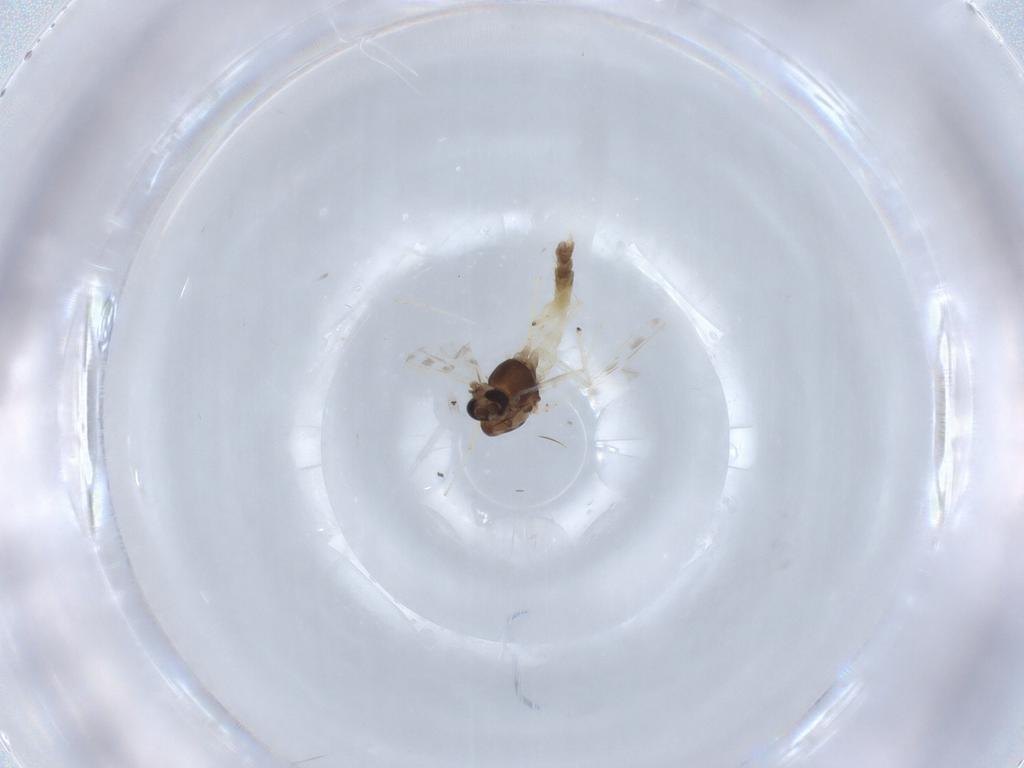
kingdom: Animalia
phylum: Arthropoda
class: Insecta
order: Diptera
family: Chironomidae
